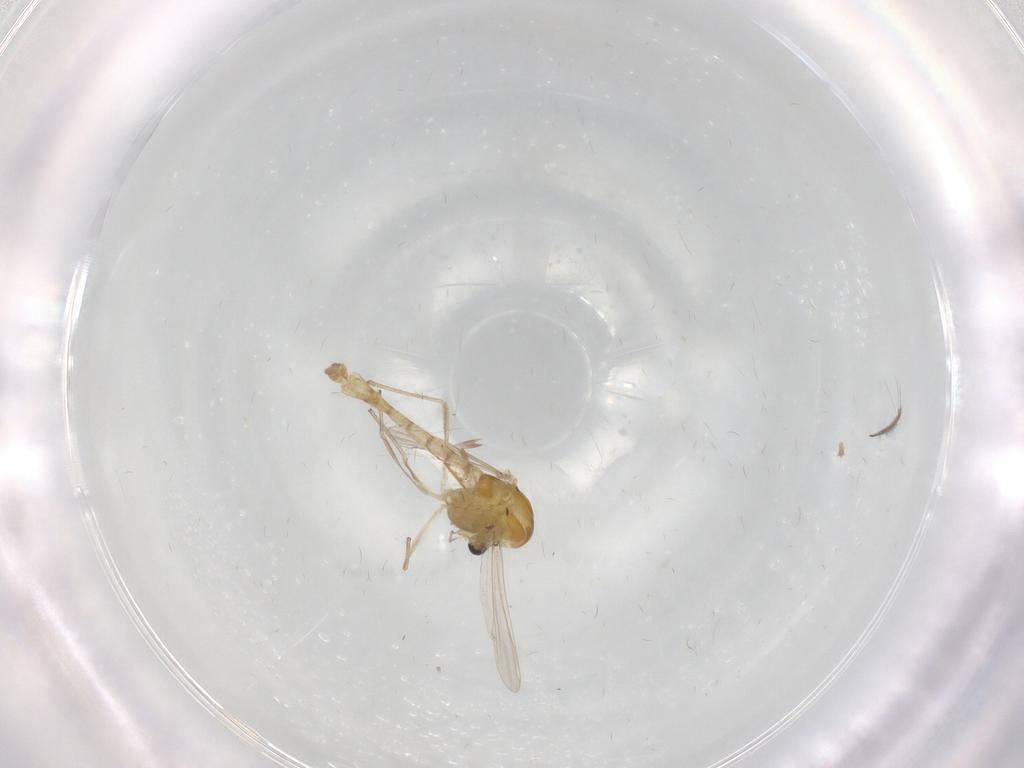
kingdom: Animalia
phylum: Arthropoda
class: Insecta
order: Diptera
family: Chironomidae
